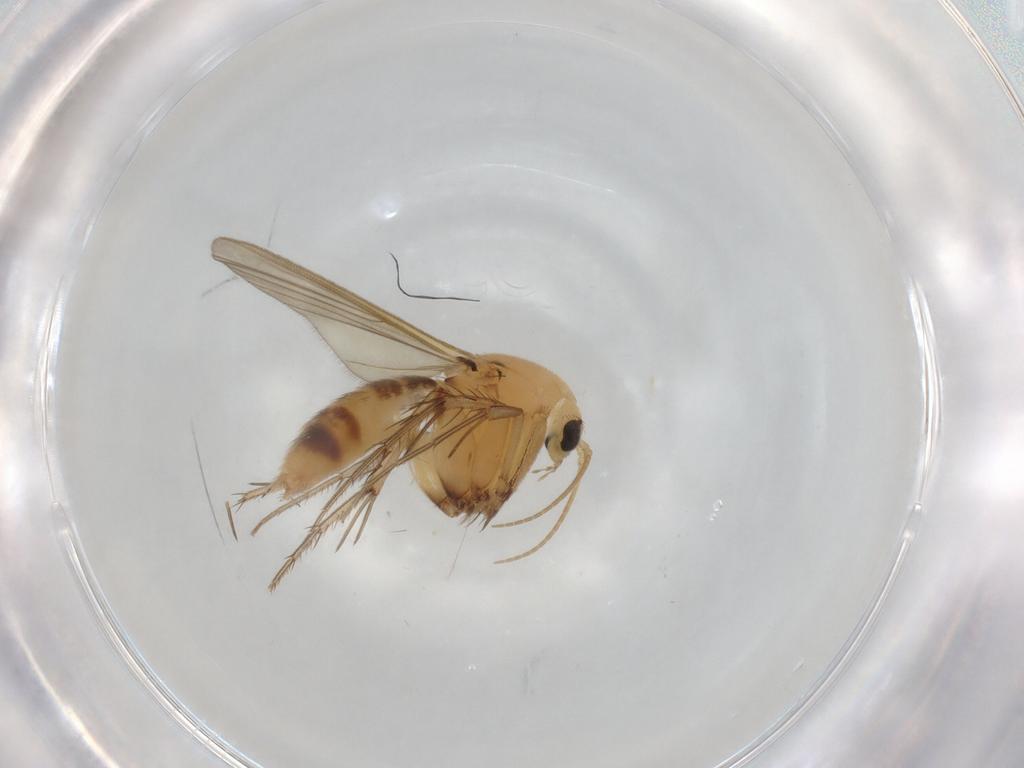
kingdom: Animalia
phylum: Arthropoda
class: Insecta
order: Diptera
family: Mycetophilidae
